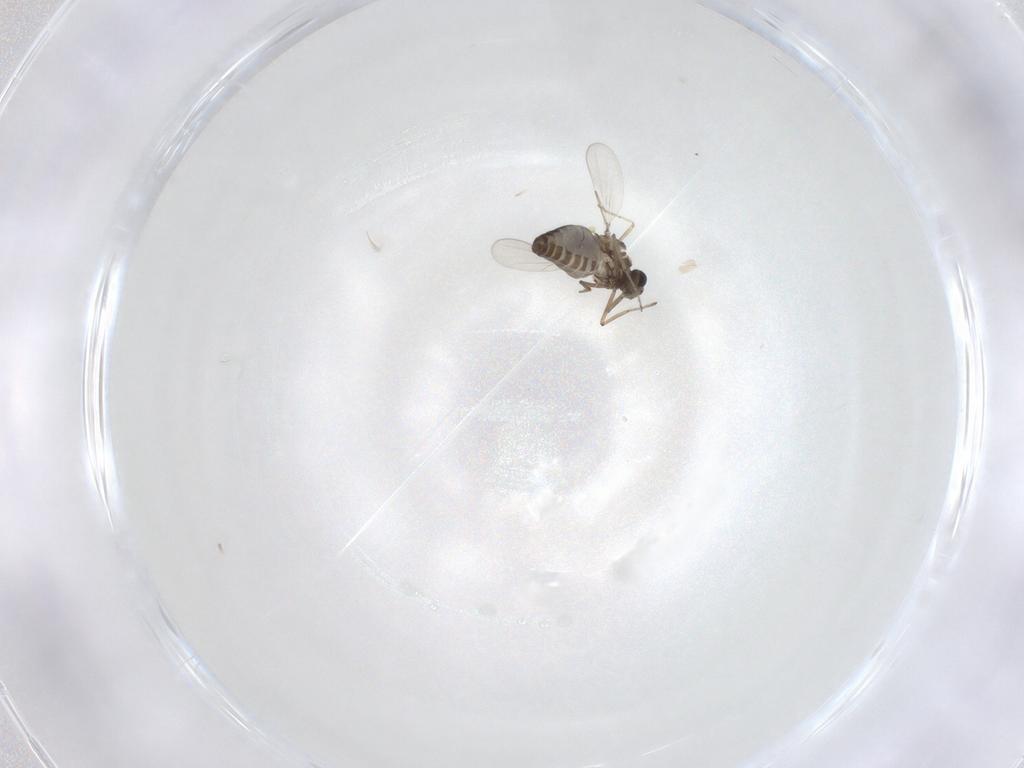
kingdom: Animalia
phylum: Arthropoda
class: Insecta
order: Diptera
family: Ceratopogonidae
